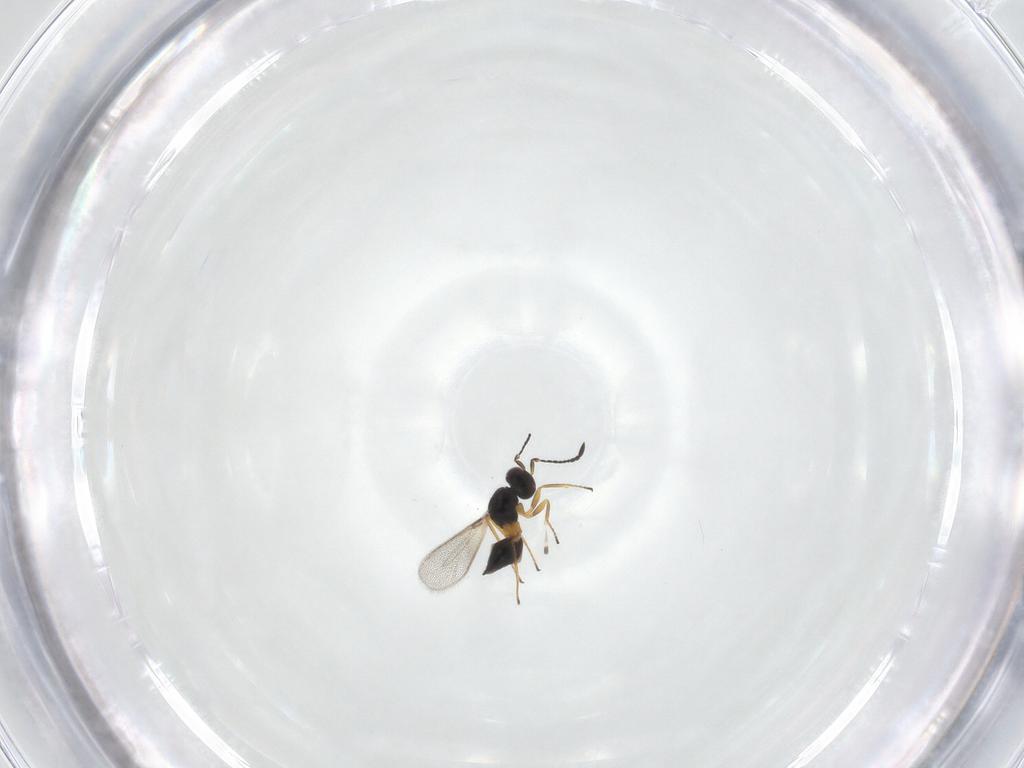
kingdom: Animalia
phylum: Arthropoda
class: Insecta
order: Hymenoptera
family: Mymaridae
